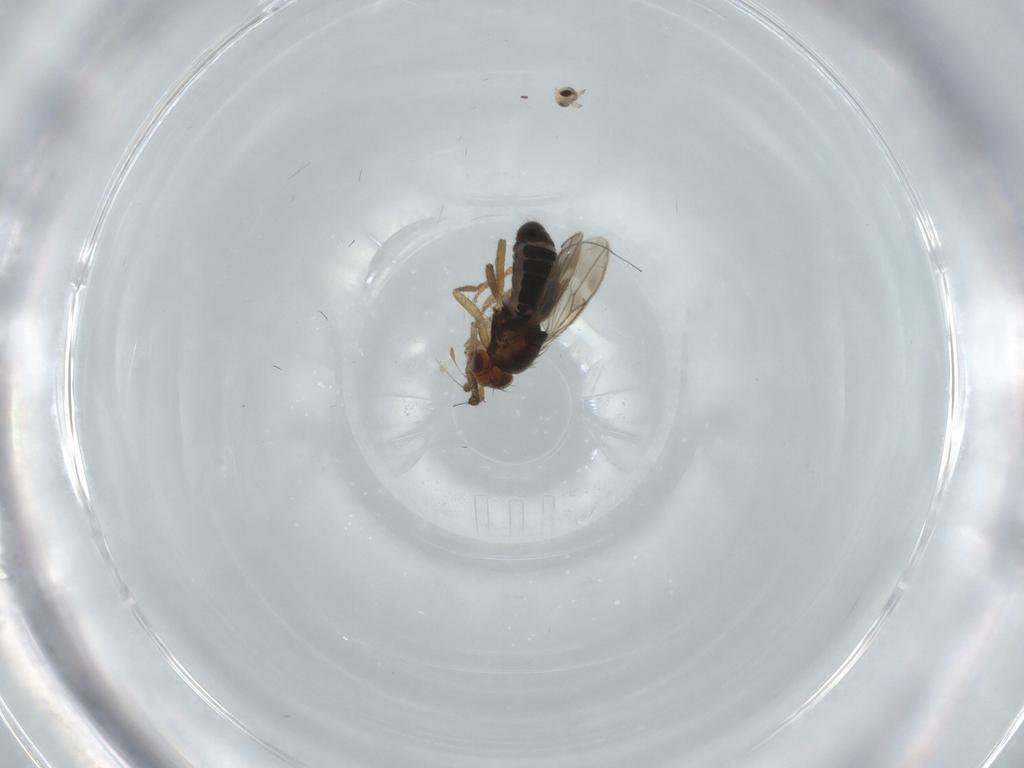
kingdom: Animalia
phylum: Arthropoda
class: Insecta
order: Diptera
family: Sphaeroceridae
